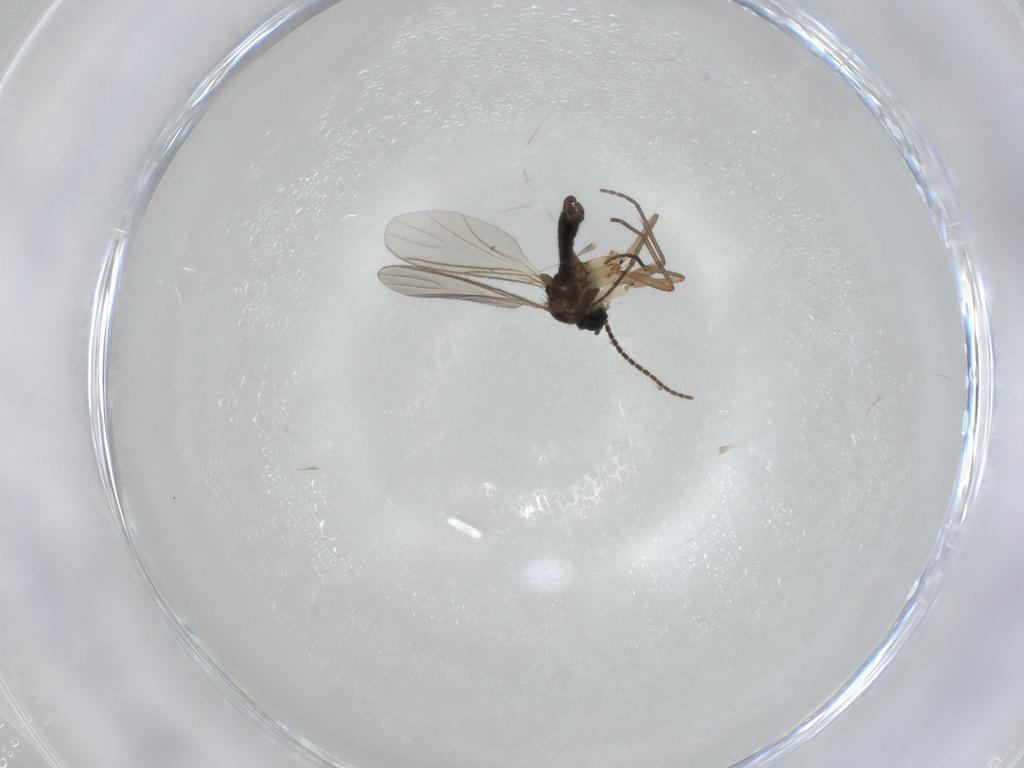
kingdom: Animalia
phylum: Arthropoda
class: Insecta
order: Diptera
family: Sciaridae
